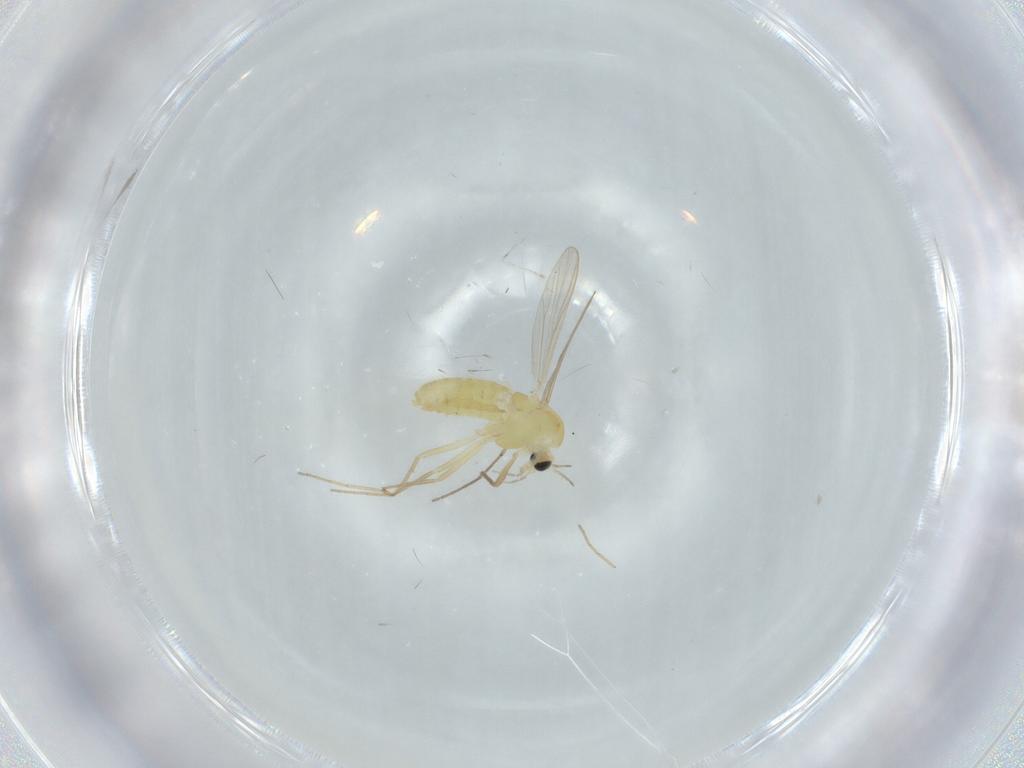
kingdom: Animalia
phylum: Arthropoda
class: Insecta
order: Diptera
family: Chironomidae
